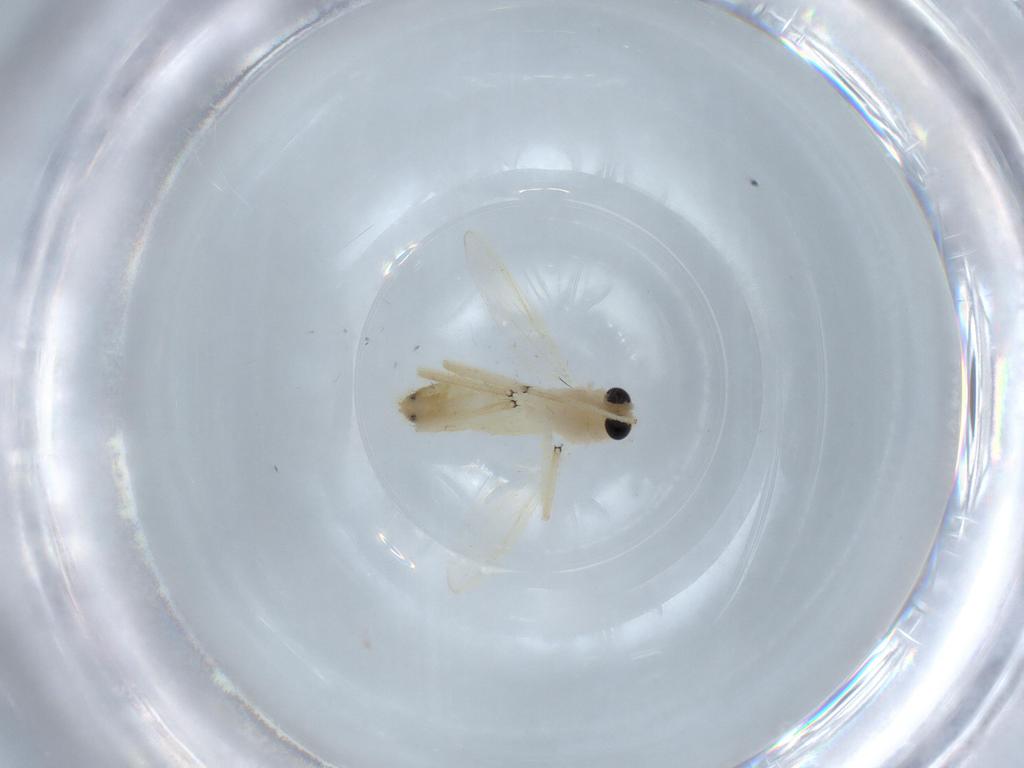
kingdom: Animalia
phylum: Arthropoda
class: Insecta
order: Diptera
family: Chironomidae
